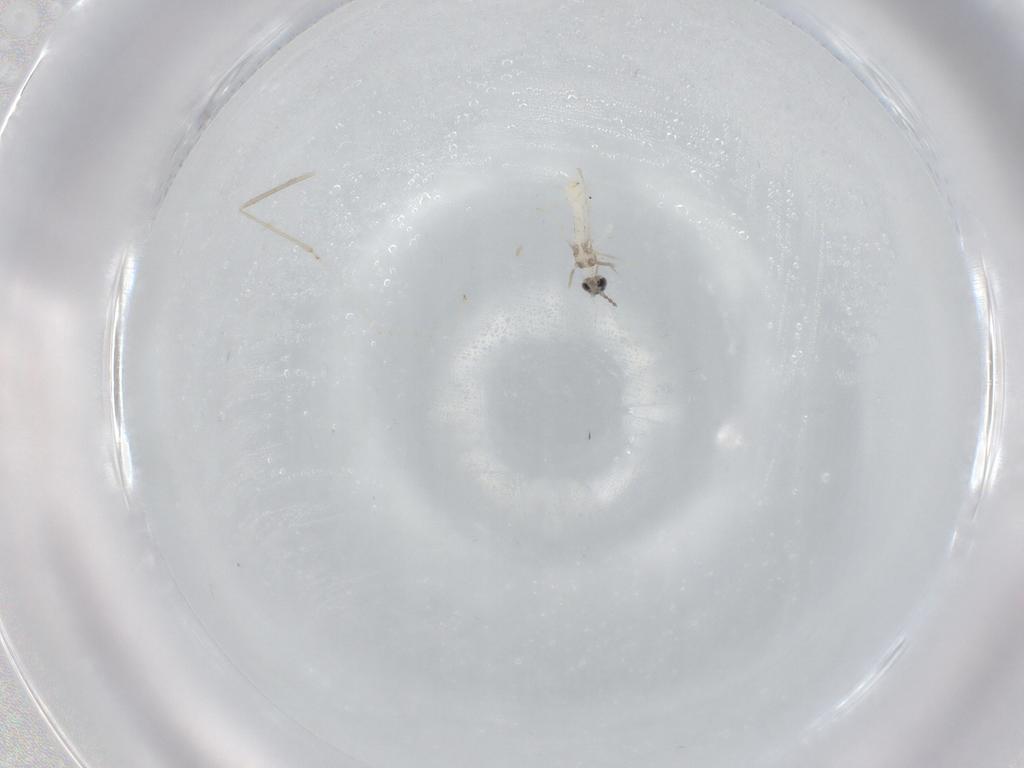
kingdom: Animalia
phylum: Arthropoda
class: Insecta
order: Diptera
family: Cecidomyiidae
